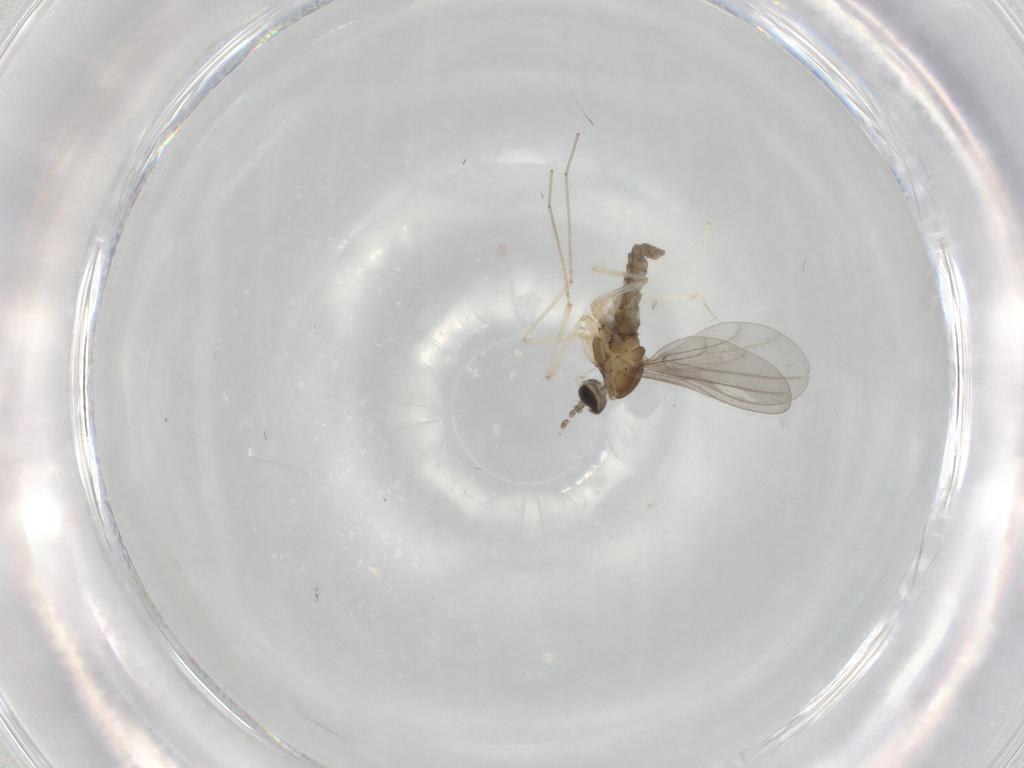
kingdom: Animalia
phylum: Arthropoda
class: Insecta
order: Diptera
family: Cecidomyiidae
